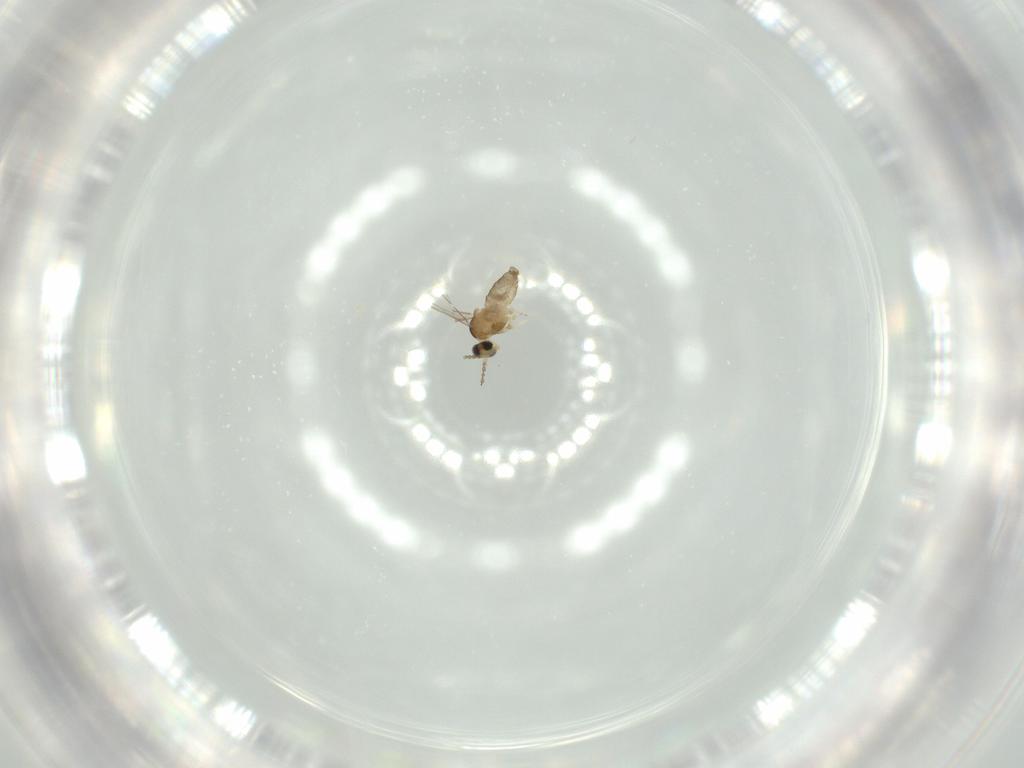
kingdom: Animalia
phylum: Arthropoda
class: Insecta
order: Diptera
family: Cecidomyiidae
